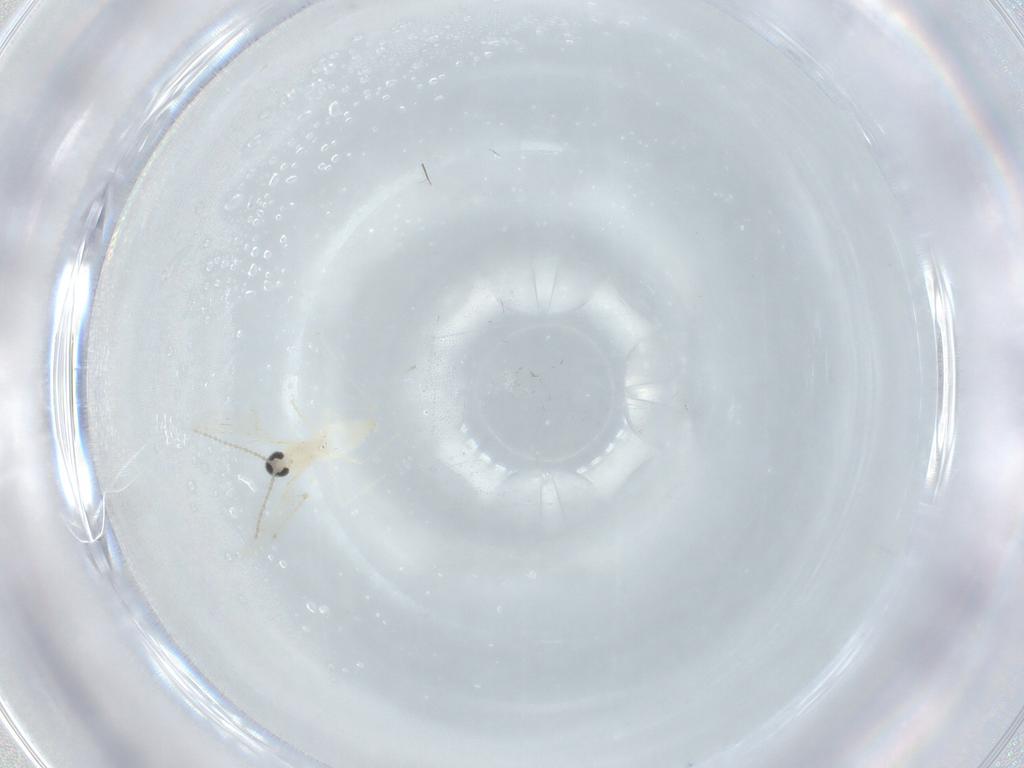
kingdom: Animalia
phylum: Arthropoda
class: Insecta
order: Diptera
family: Cecidomyiidae
